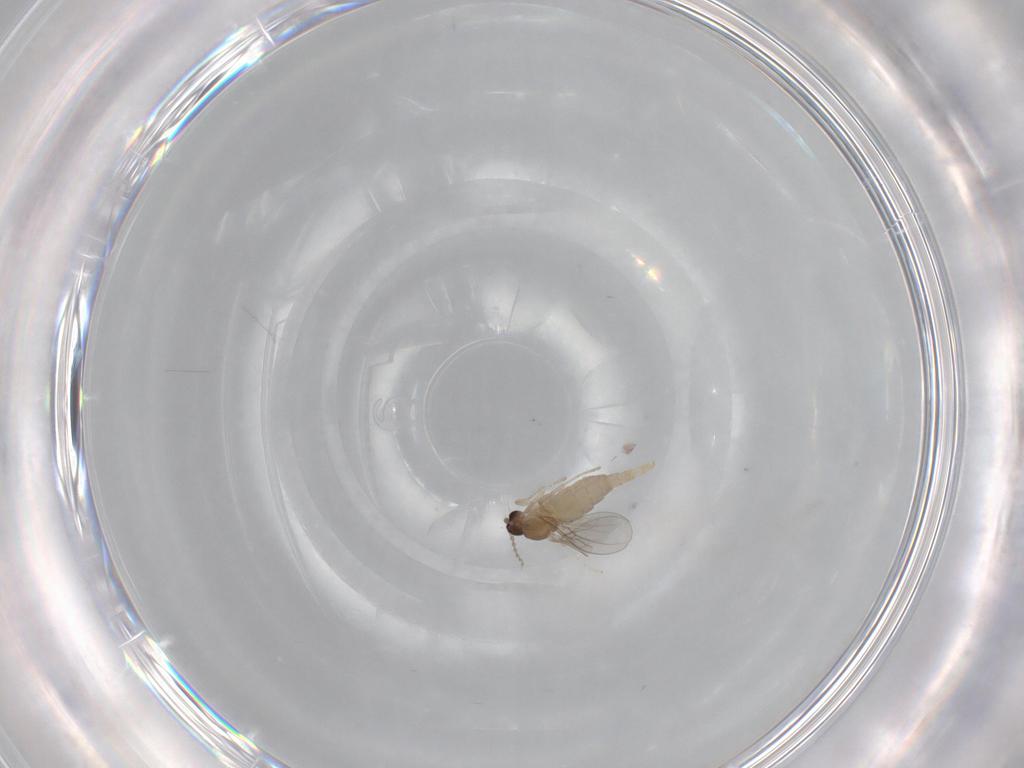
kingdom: Animalia
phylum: Arthropoda
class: Insecta
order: Diptera
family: Cecidomyiidae
